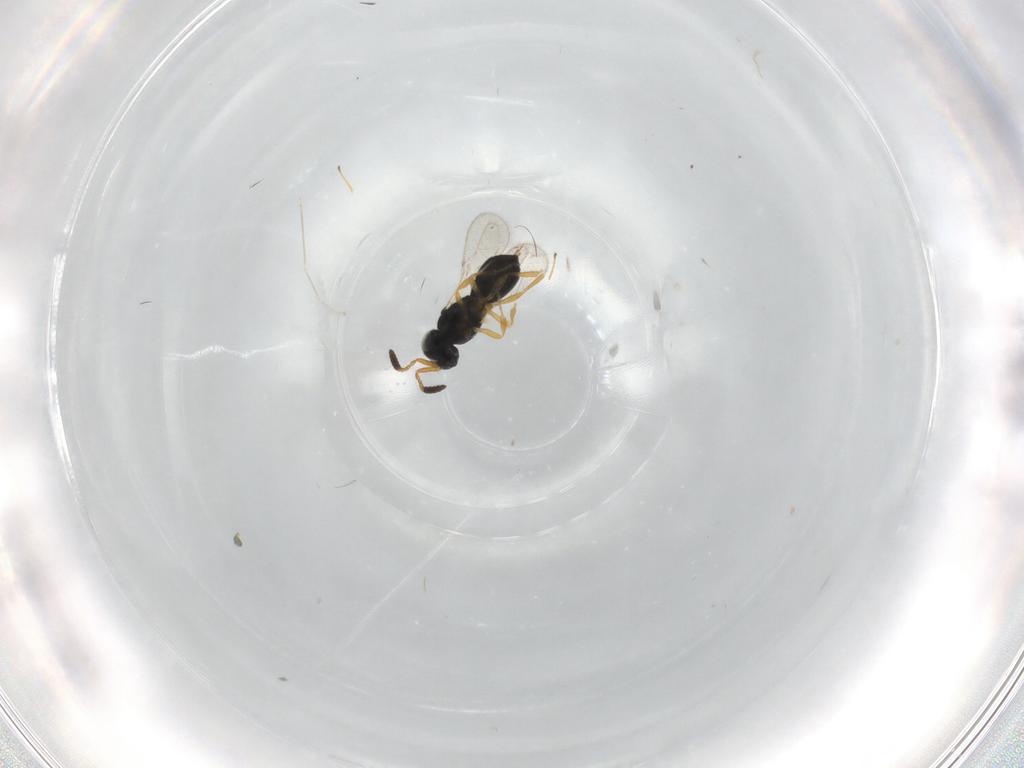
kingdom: Animalia
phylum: Arthropoda
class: Insecta
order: Hymenoptera
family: Scelionidae
